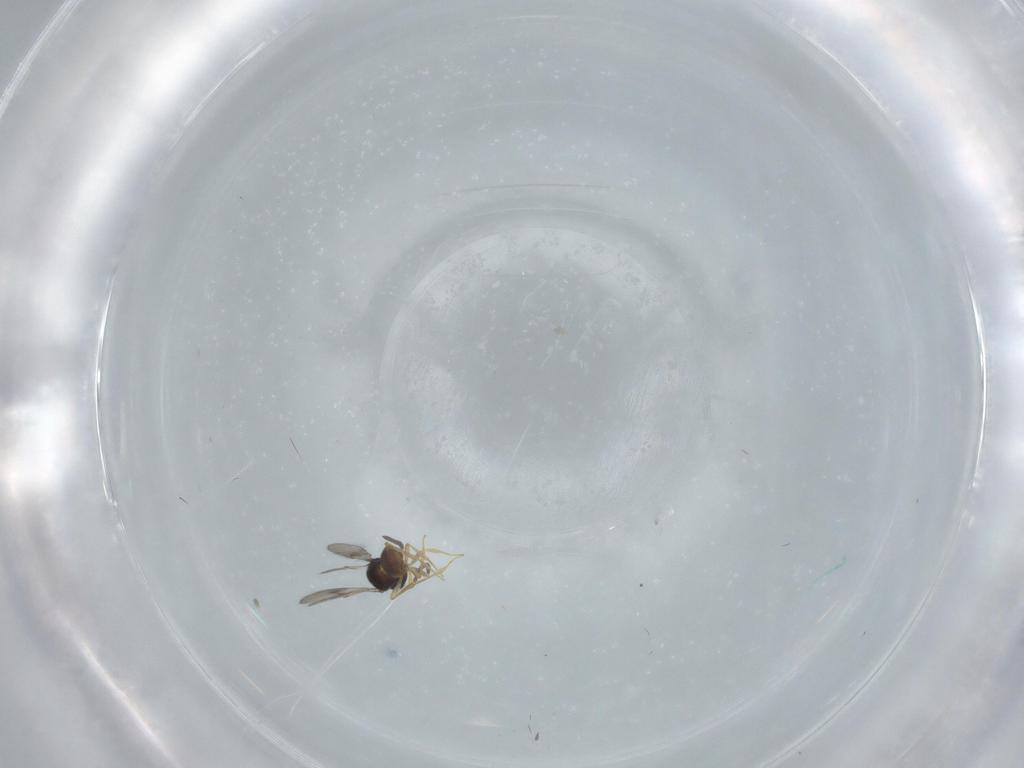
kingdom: Animalia
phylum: Arthropoda
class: Insecta
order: Hymenoptera
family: Scelionidae
